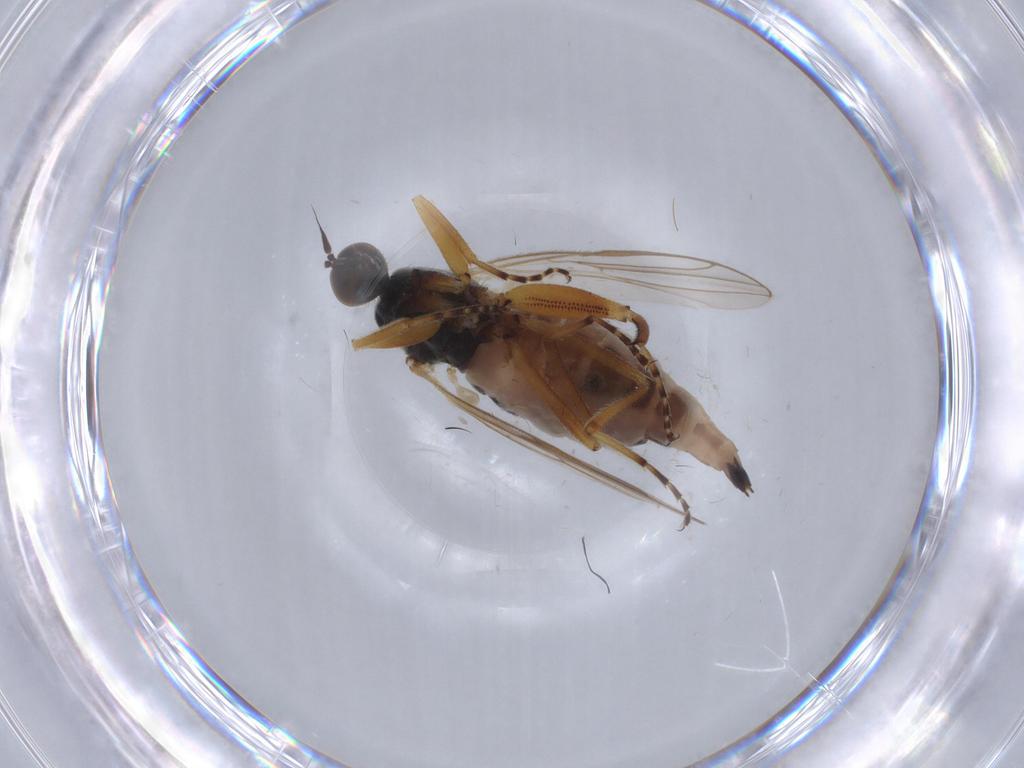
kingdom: Animalia
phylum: Arthropoda
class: Insecta
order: Diptera
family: Hybotidae
